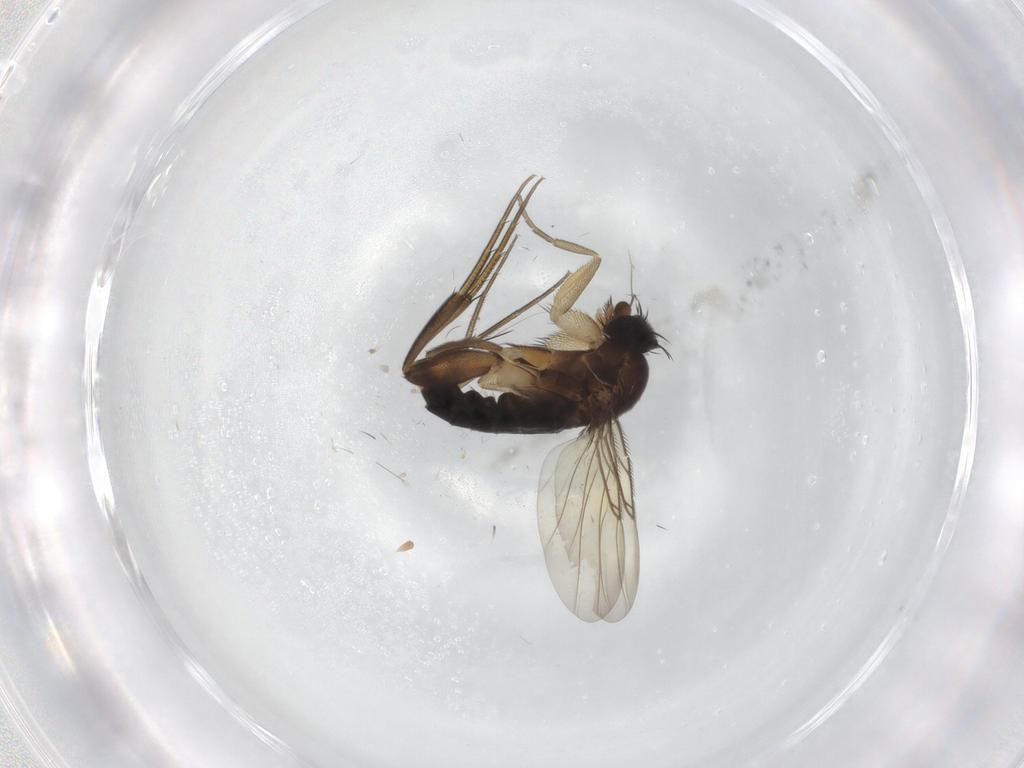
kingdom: Animalia
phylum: Arthropoda
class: Insecta
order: Diptera
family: Phoridae
